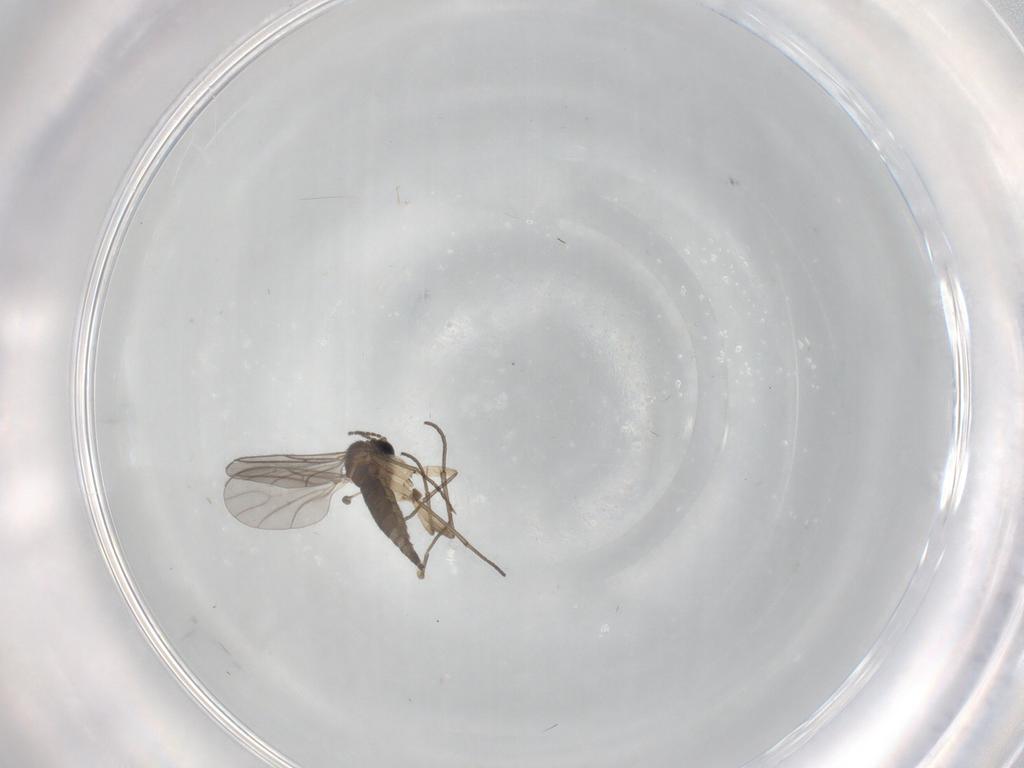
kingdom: Animalia
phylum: Arthropoda
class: Insecta
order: Diptera
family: Sciaridae
